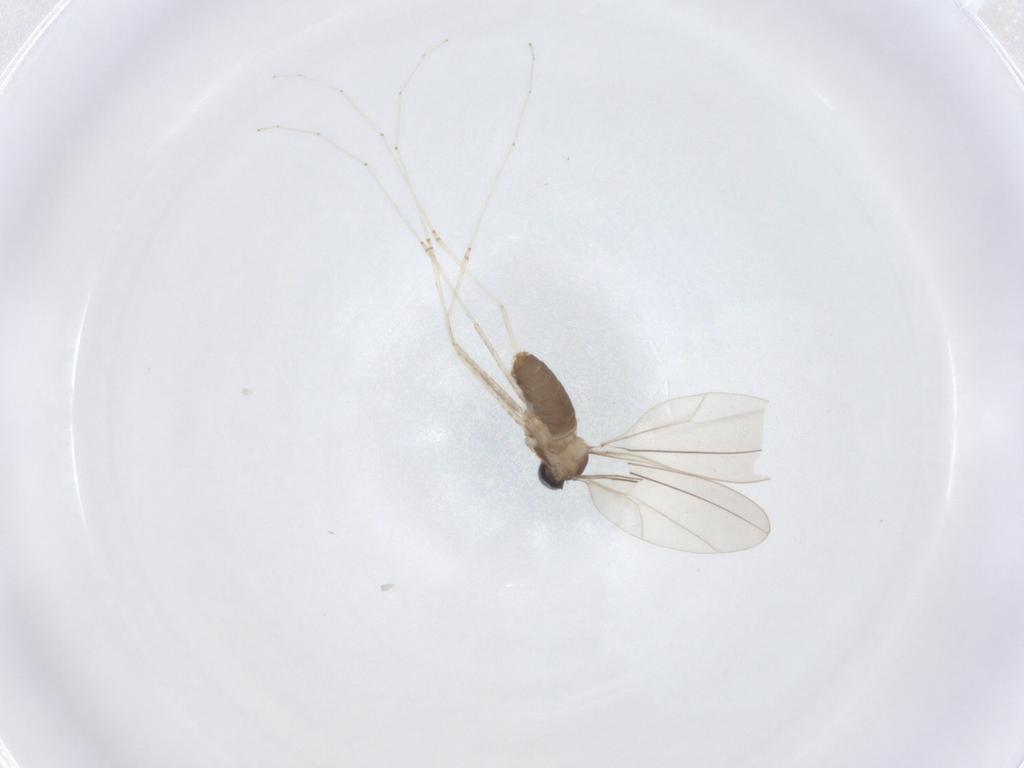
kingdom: Animalia
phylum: Arthropoda
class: Insecta
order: Diptera
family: Cecidomyiidae
